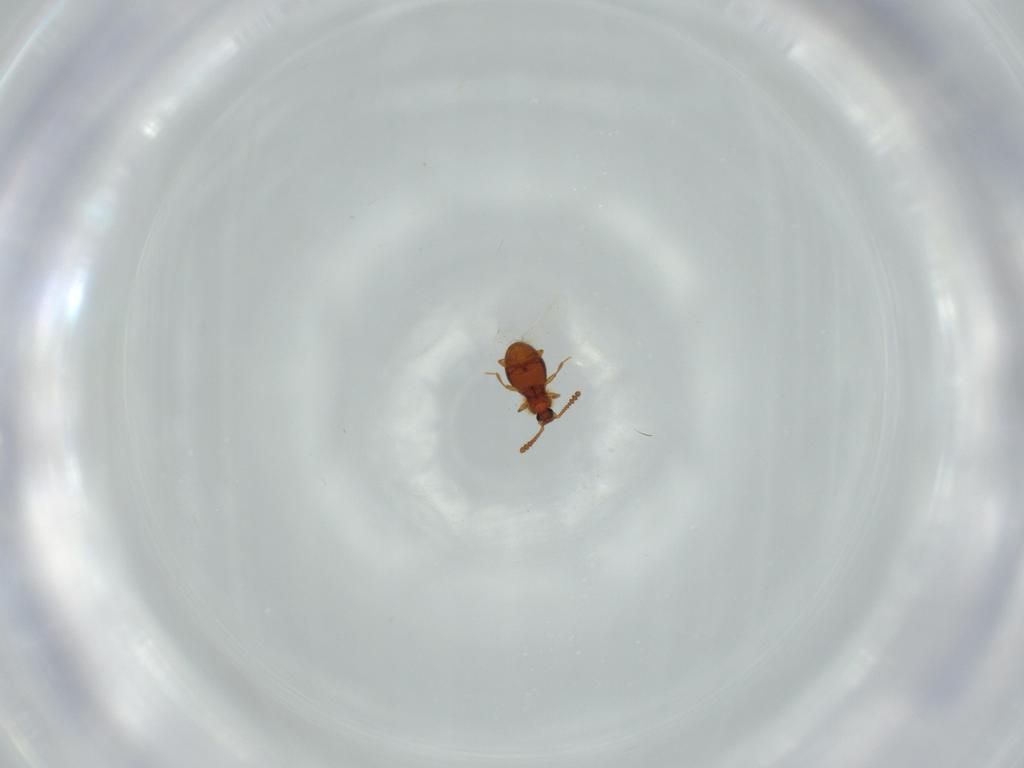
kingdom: Animalia
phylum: Arthropoda
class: Insecta
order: Coleoptera
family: Staphylinidae
